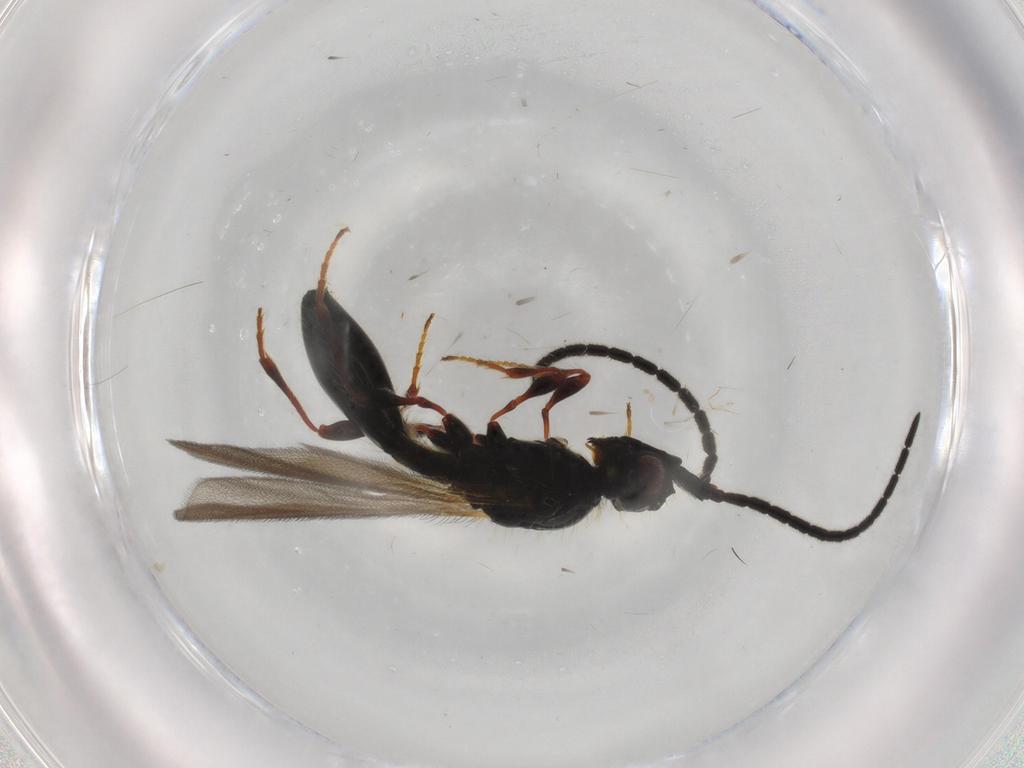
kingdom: Animalia
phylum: Arthropoda
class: Insecta
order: Hymenoptera
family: Diapriidae
